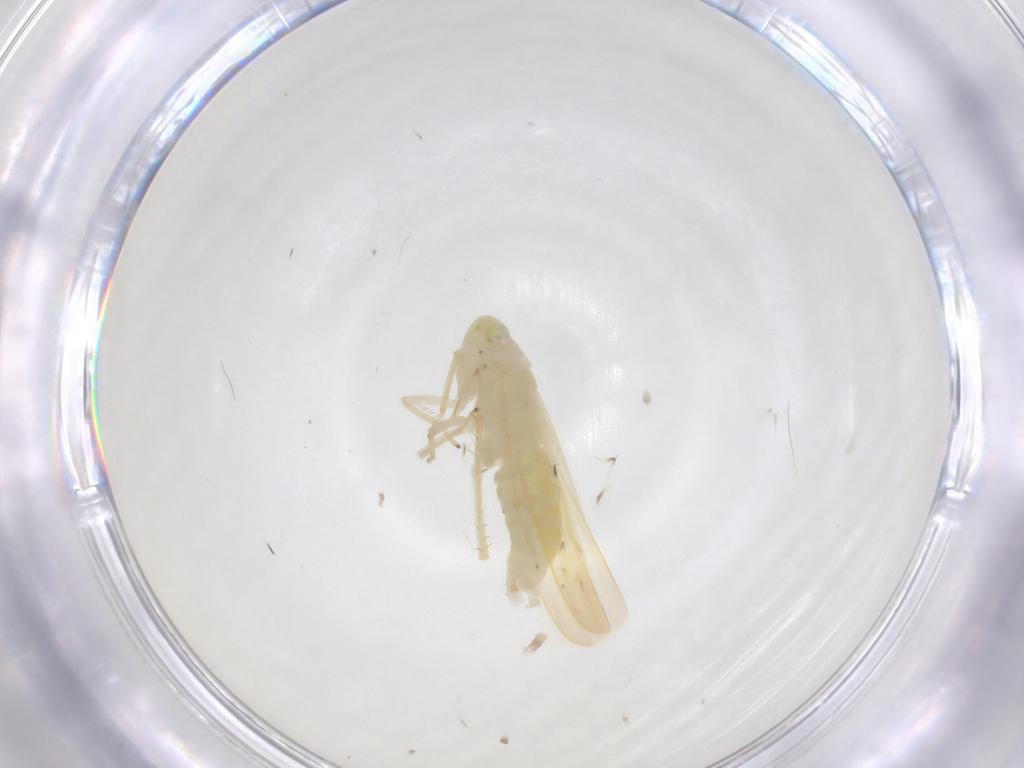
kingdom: Animalia
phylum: Arthropoda
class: Insecta
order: Hemiptera
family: Cicadellidae
